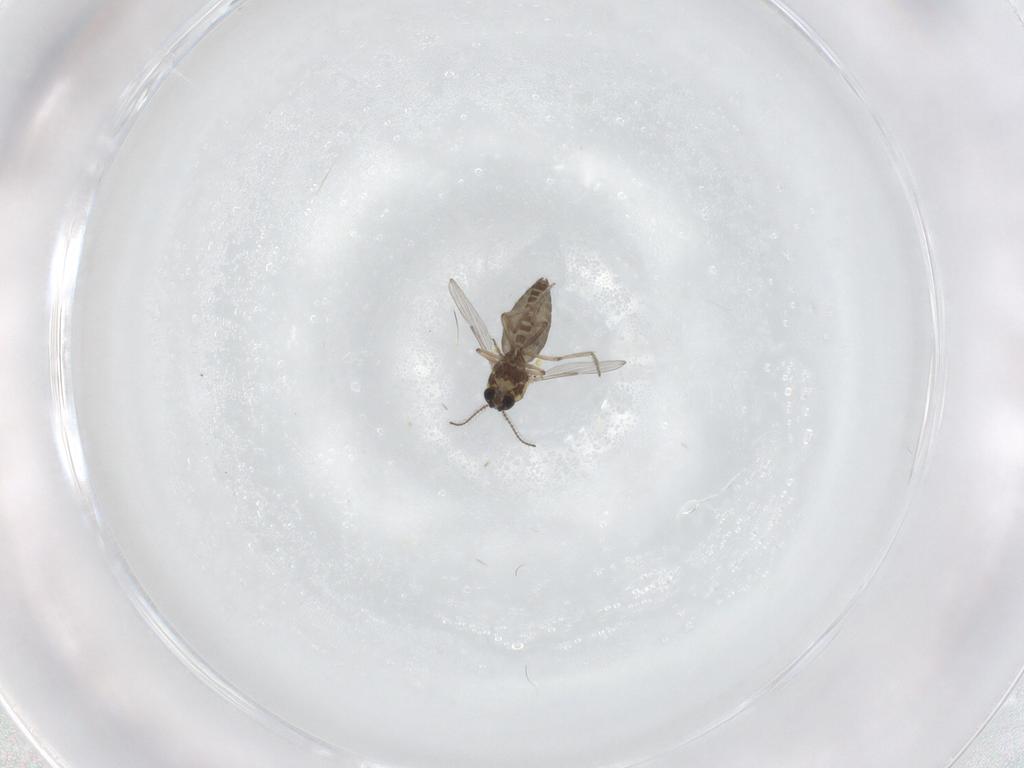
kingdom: Animalia
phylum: Arthropoda
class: Insecta
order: Diptera
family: Ceratopogonidae
